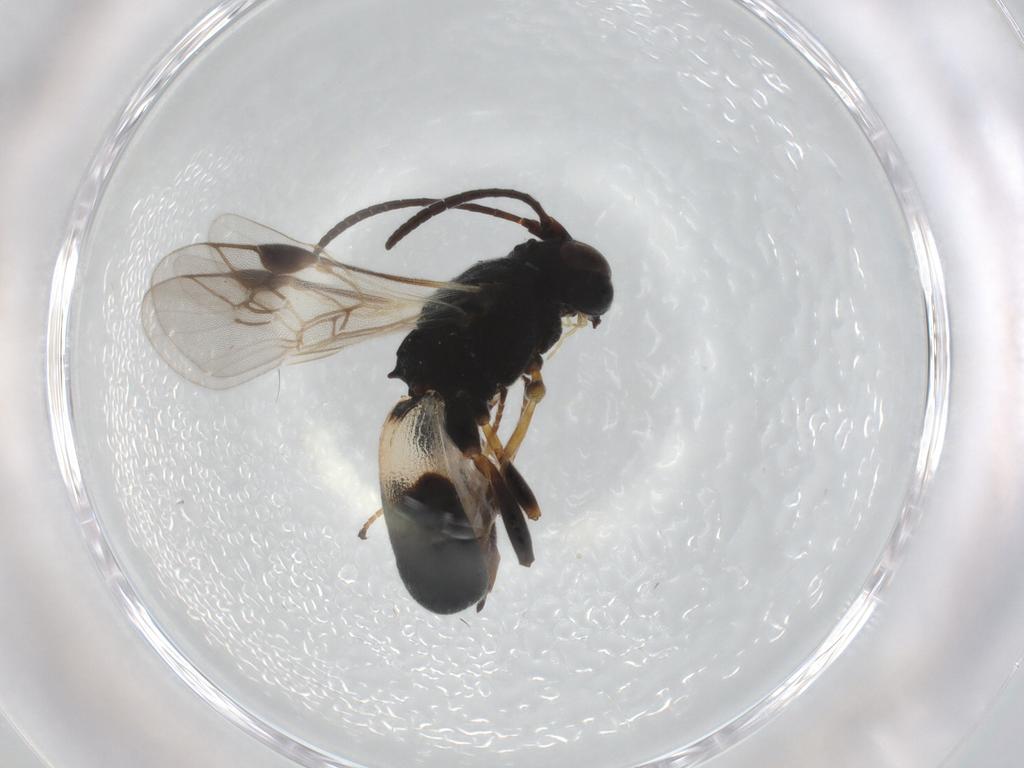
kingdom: Animalia
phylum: Arthropoda
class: Insecta
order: Hymenoptera
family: Braconidae
